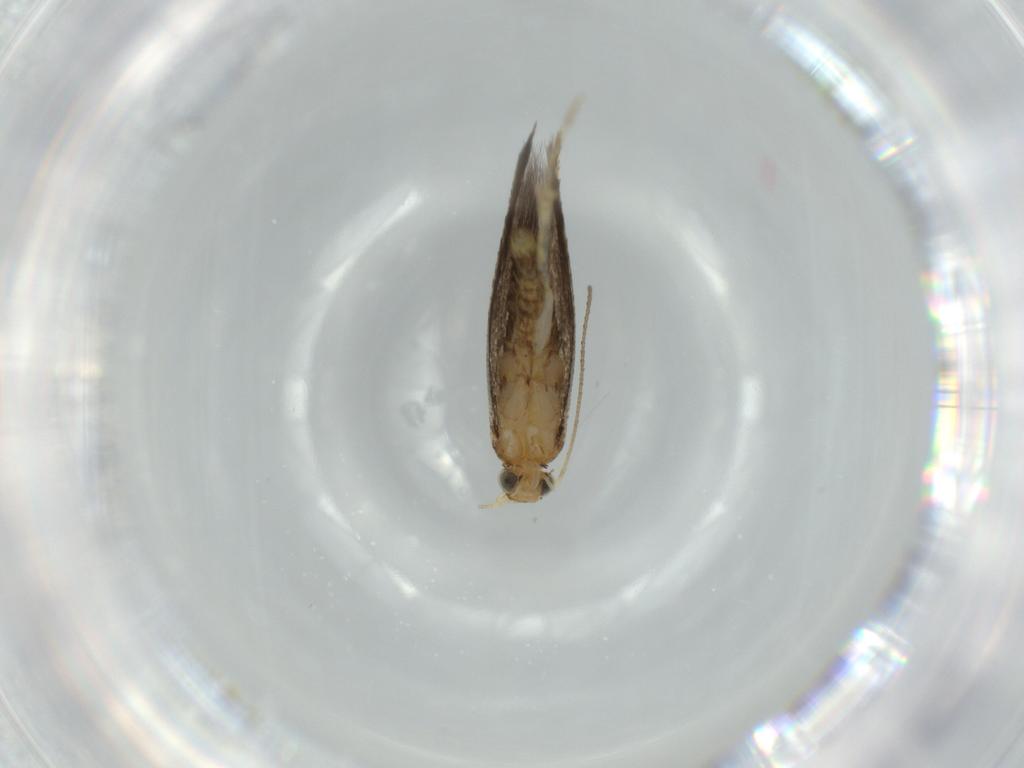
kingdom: Animalia
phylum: Arthropoda
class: Insecta
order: Lepidoptera
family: Argyresthiidae
